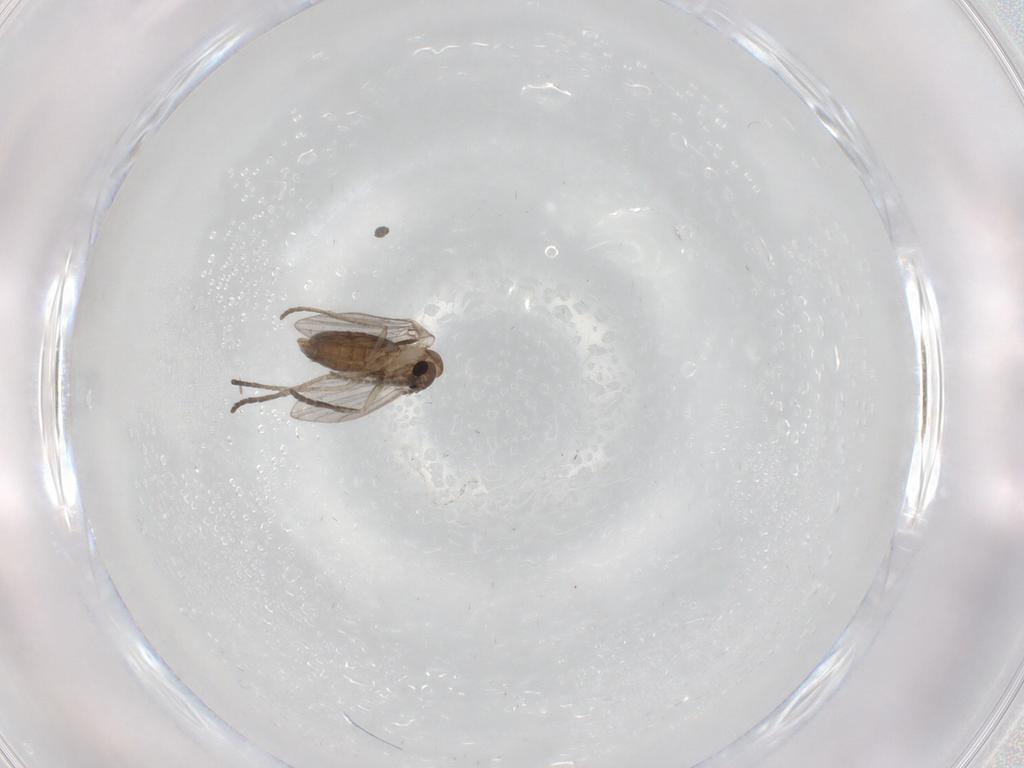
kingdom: Animalia
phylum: Arthropoda
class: Insecta
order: Diptera
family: Psychodidae
